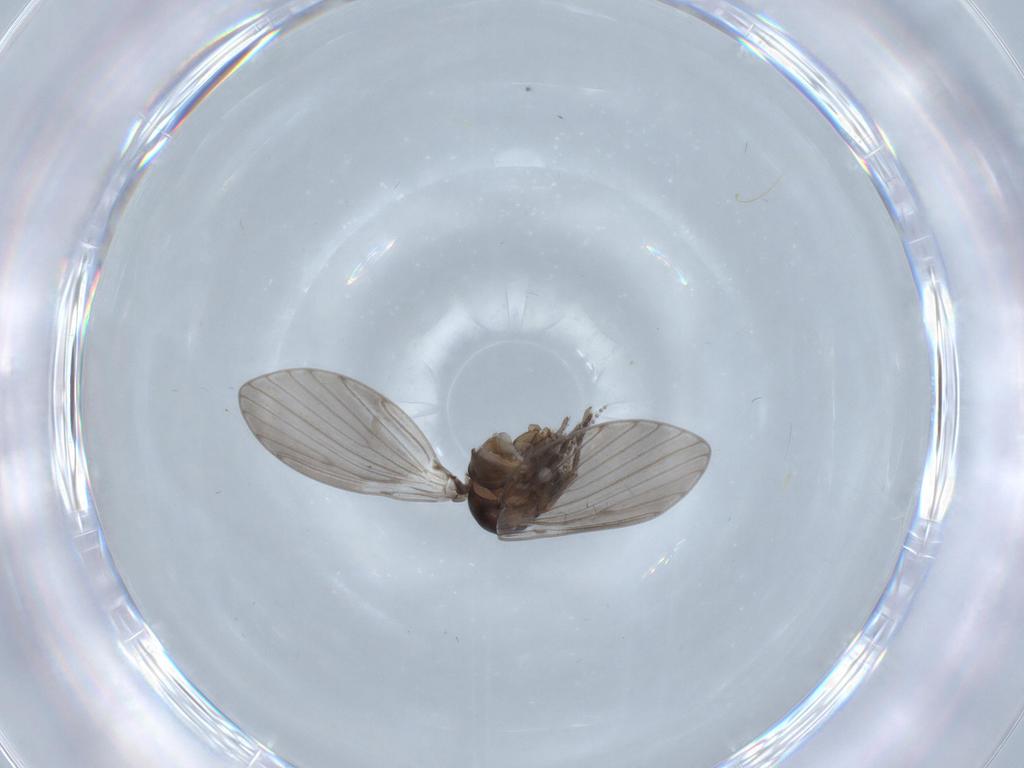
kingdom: Animalia
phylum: Arthropoda
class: Insecta
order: Diptera
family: Psychodidae
